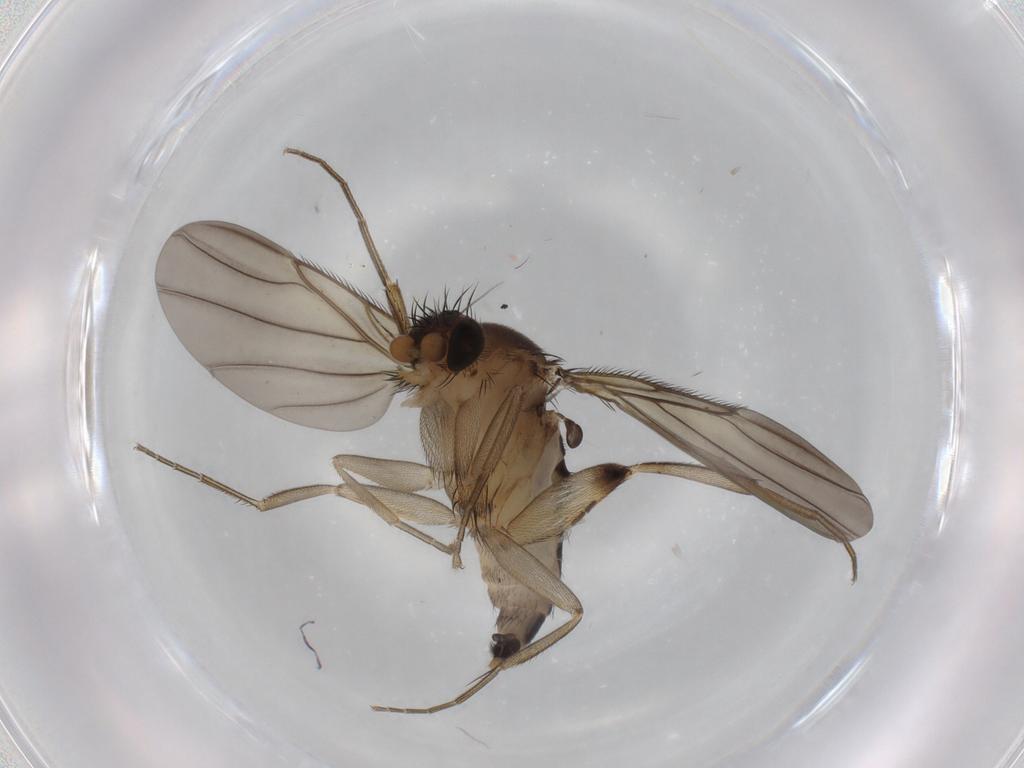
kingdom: Animalia
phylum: Arthropoda
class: Insecta
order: Diptera
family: Phoridae
